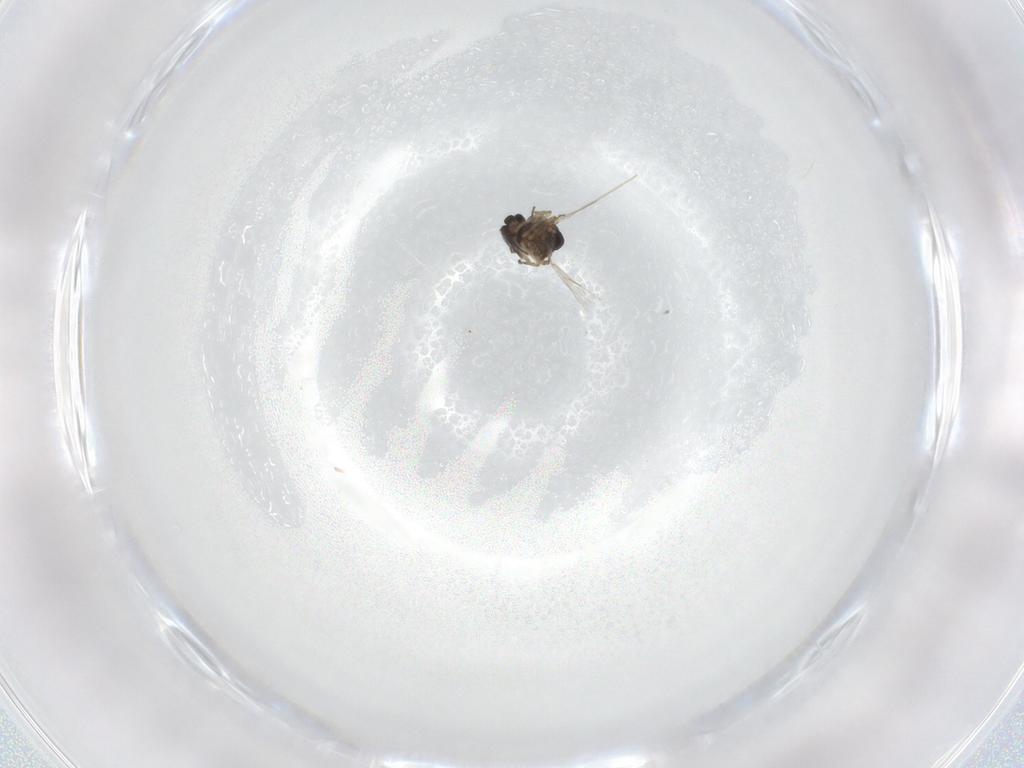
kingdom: Animalia
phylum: Arthropoda
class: Insecta
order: Diptera
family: Ceratopogonidae
